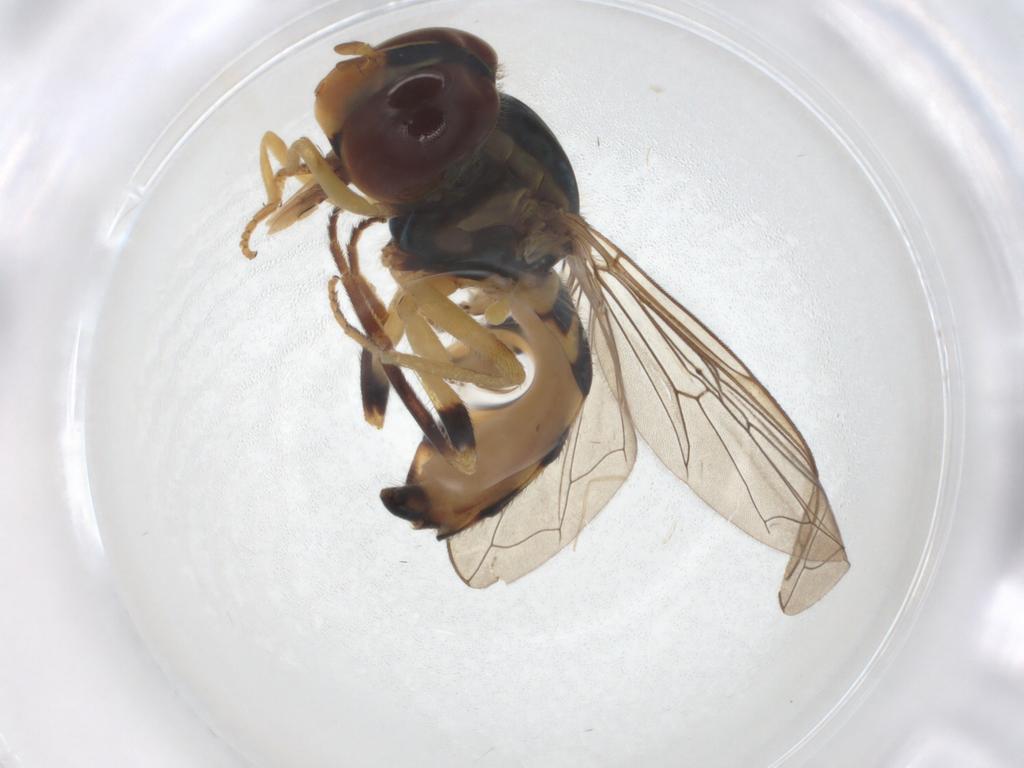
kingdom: Animalia
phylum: Arthropoda
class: Insecta
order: Diptera
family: Syrphidae
